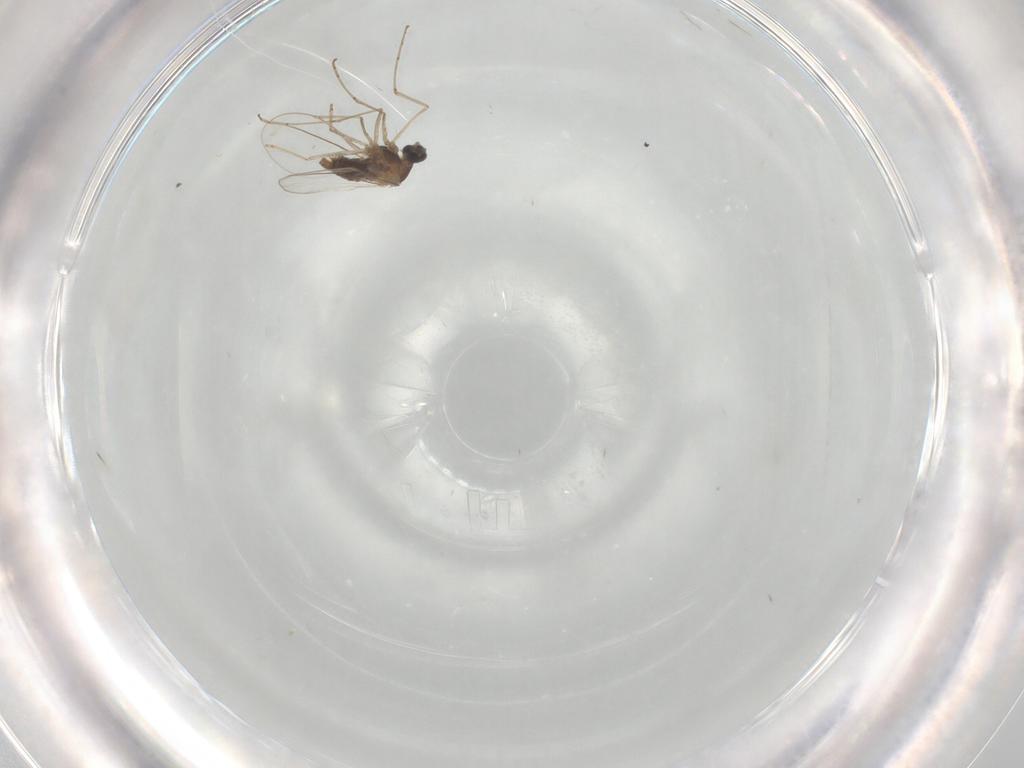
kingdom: Animalia
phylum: Arthropoda
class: Insecta
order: Diptera
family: Cecidomyiidae
